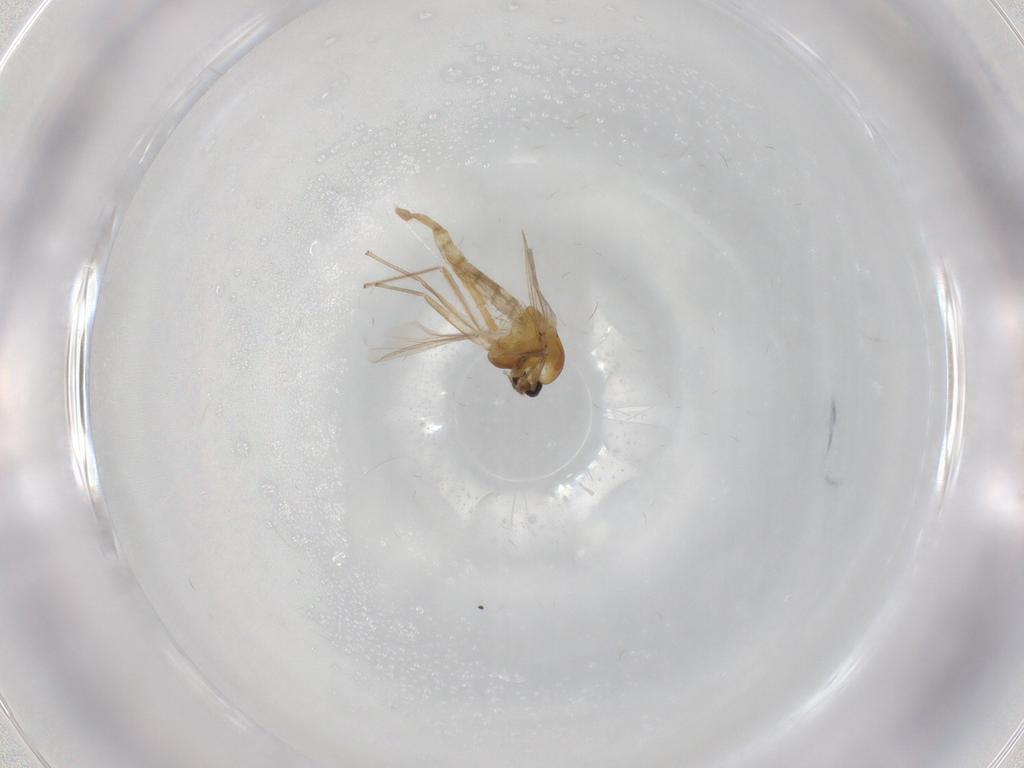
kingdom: Animalia
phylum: Arthropoda
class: Insecta
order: Diptera
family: Chironomidae
